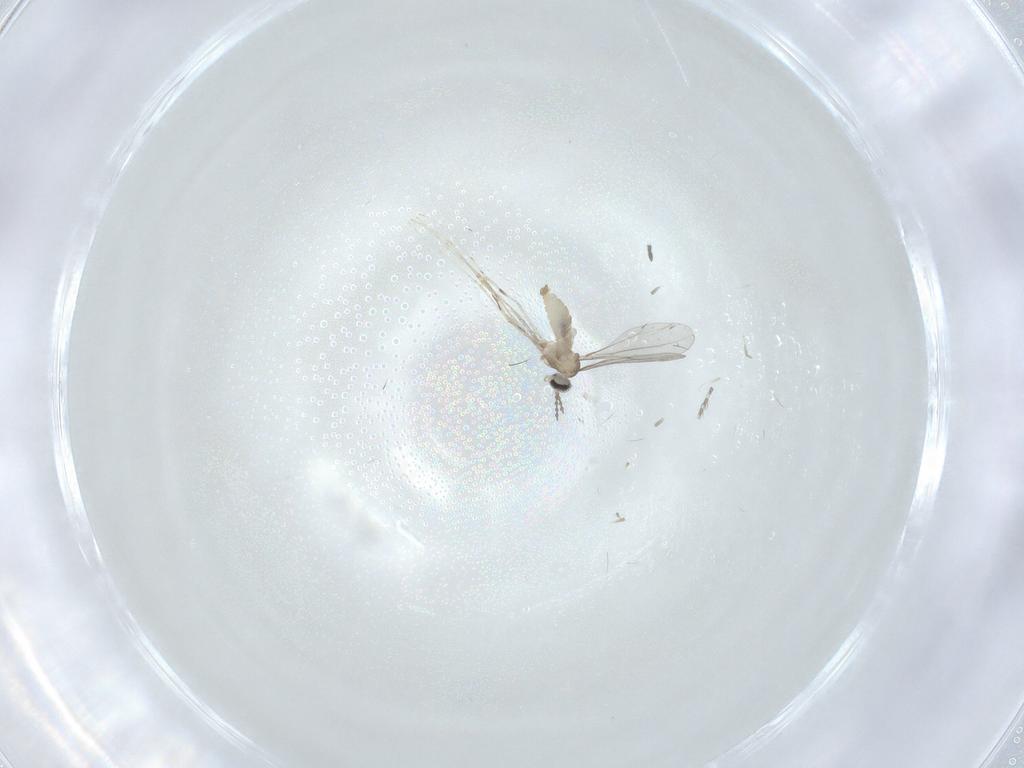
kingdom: Animalia
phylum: Arthropoda
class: Insecta
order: Diptera
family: Cecidomyiidae
